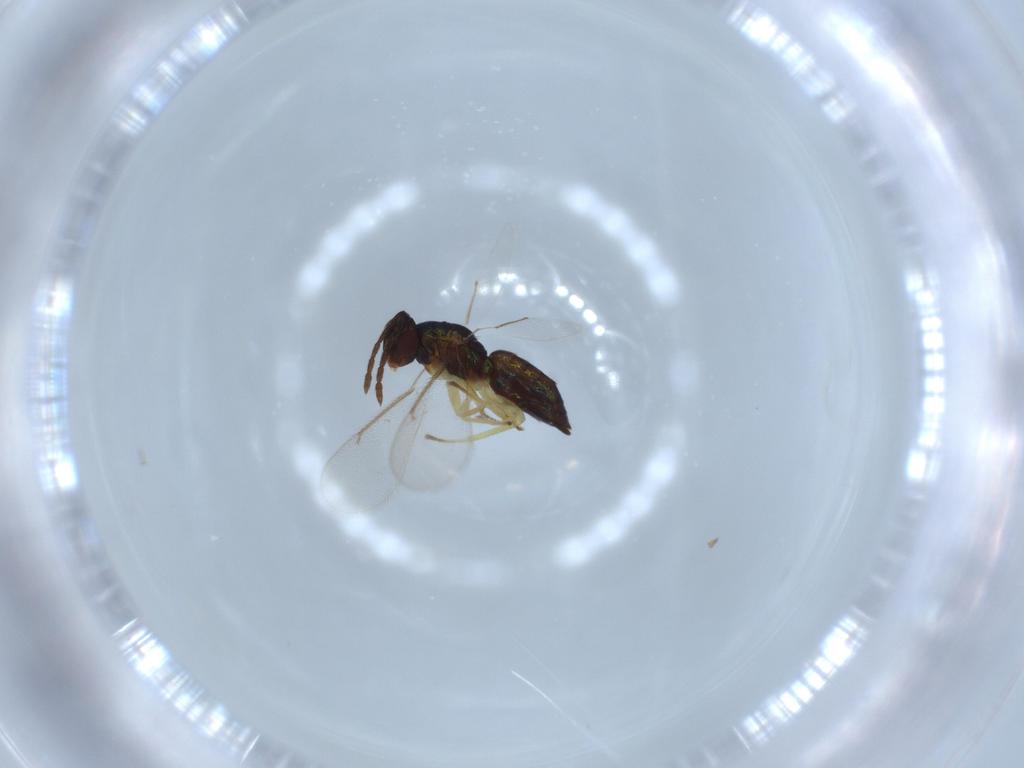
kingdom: Animalia
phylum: Arthropoda
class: Insecta
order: Hymenoptera
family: Eulophidae
